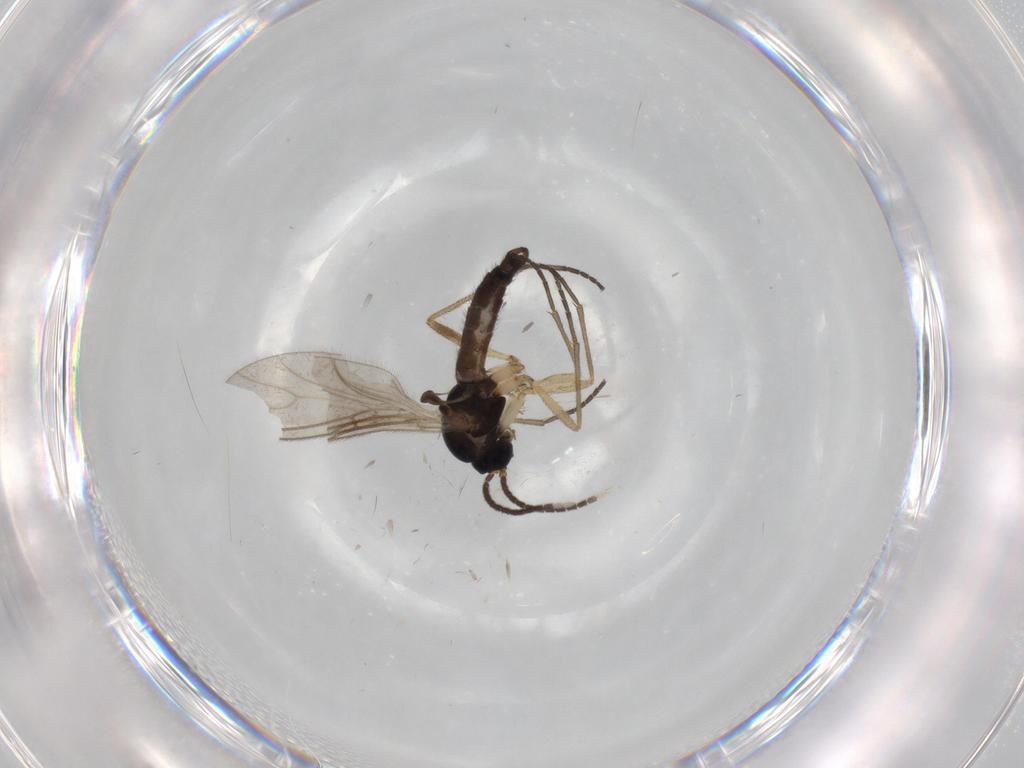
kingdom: Animalia
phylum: Arthropoda
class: Insecta
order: Diptera
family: Sciaridae
